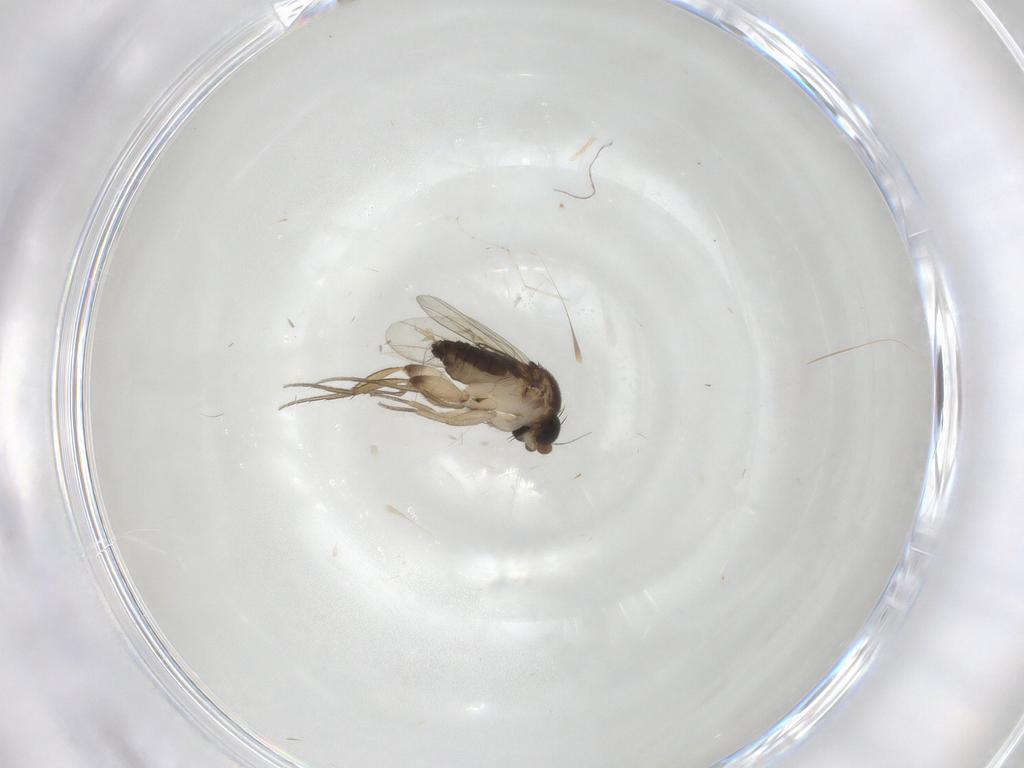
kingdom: Animalia
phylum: Arthropoda
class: Insecta
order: Diptera
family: Phoridae
